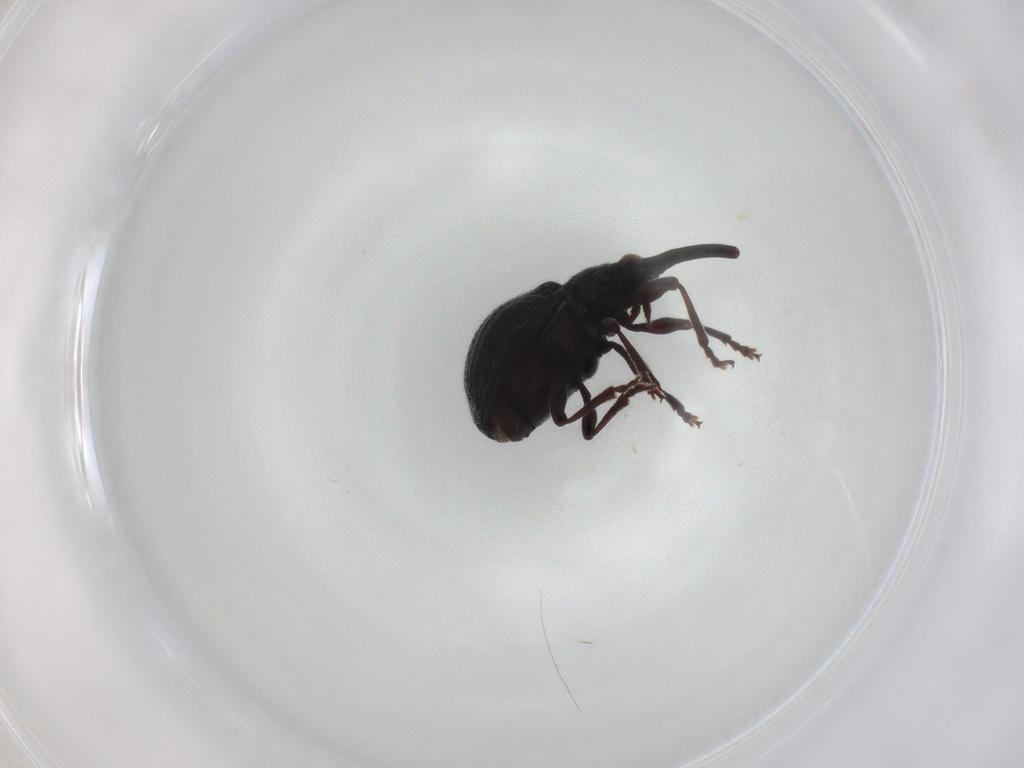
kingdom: Animalia
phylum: Arthropoda
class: Insecta
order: Coleoptera
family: Brentidae
